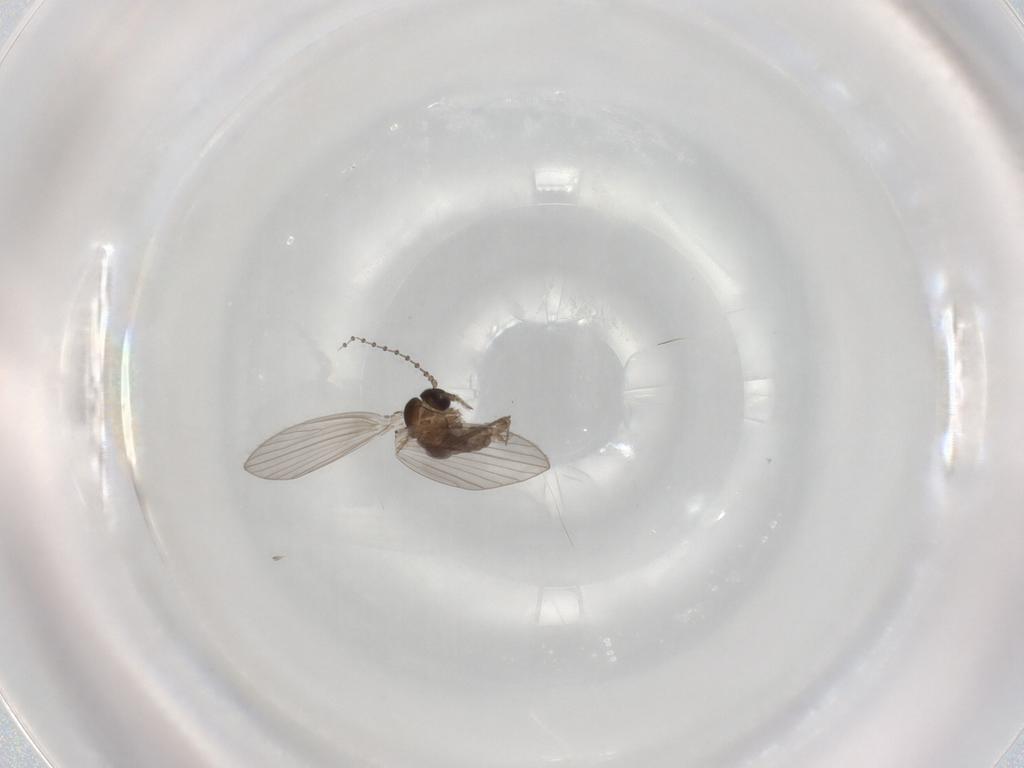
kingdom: Animalia
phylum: Arthropoda
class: Insecta
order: Diptera
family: Psychodidae
